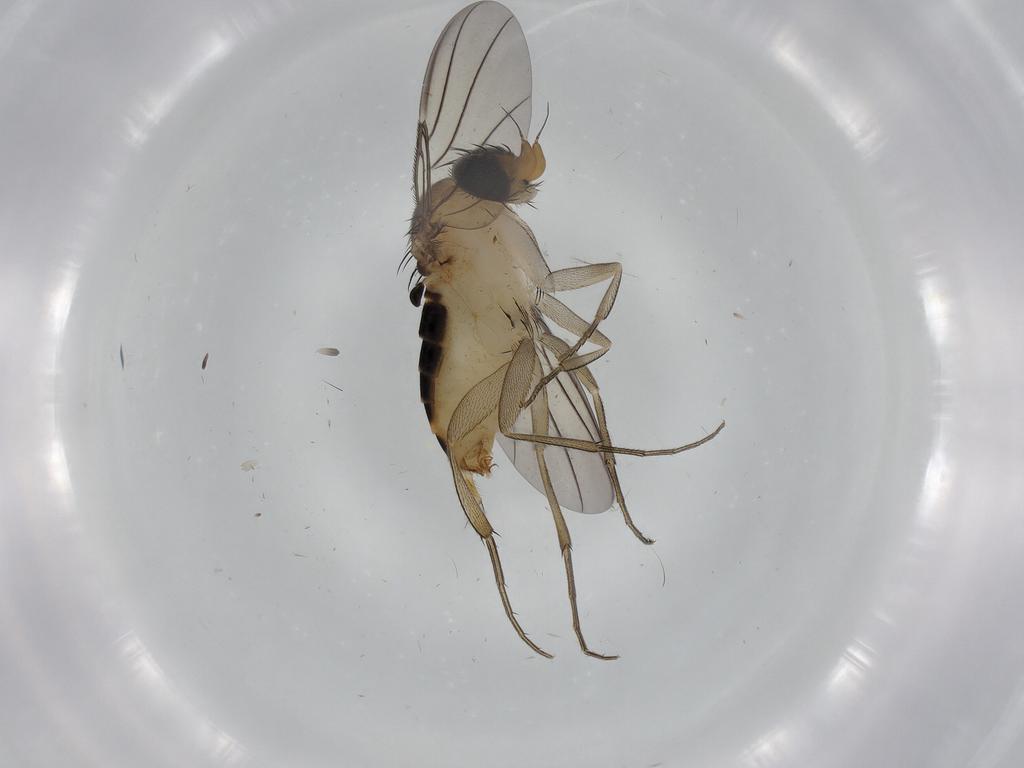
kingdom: Animalia
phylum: Arthropoda
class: Insecta
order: Diptera
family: Phoridae
